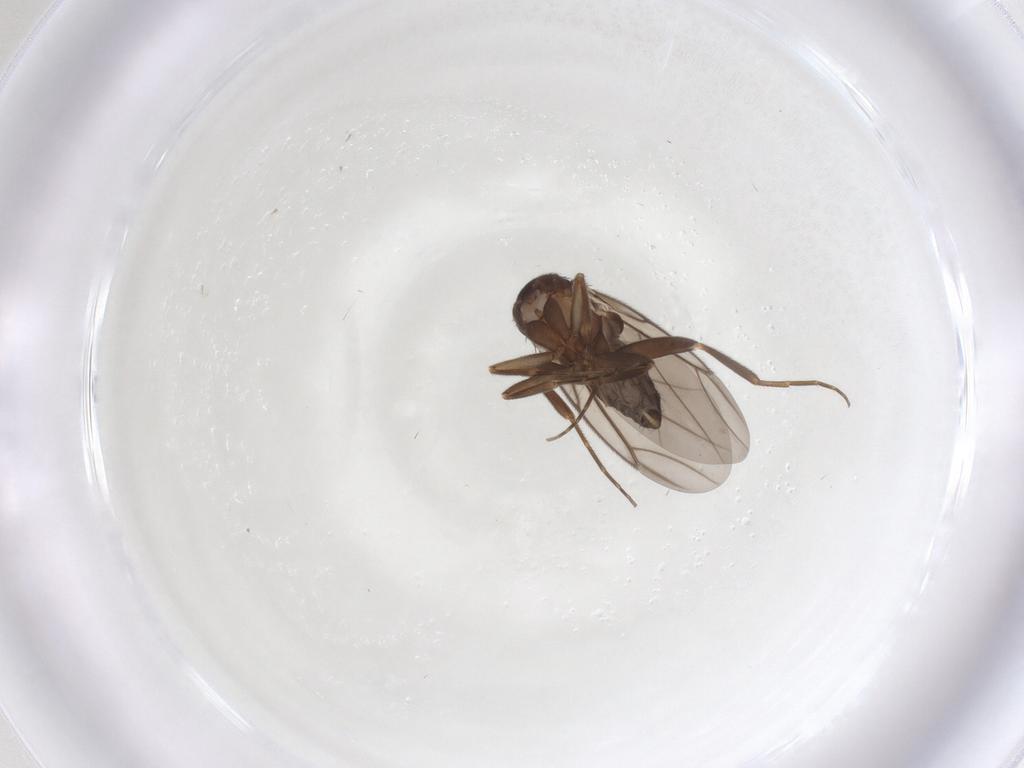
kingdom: Animalia
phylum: Arthropoda
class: Insecta
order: Diptera
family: Phoridae
